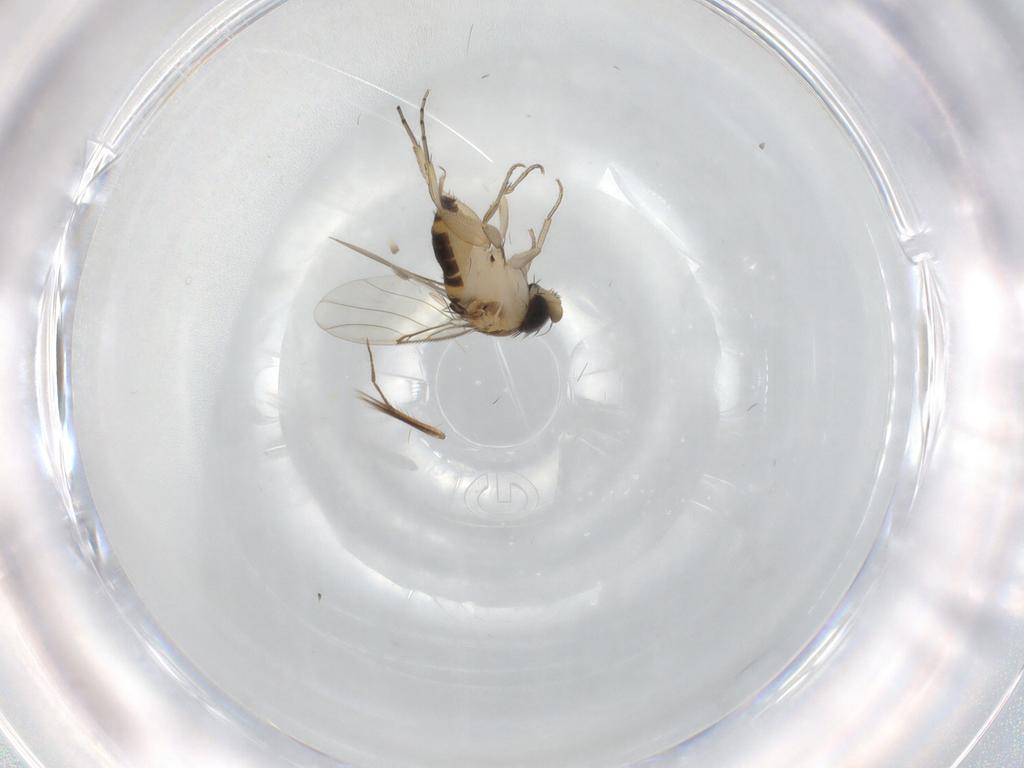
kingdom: Animalia
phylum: Arthropoda
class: Insecta
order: Diptera
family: Phoridae
